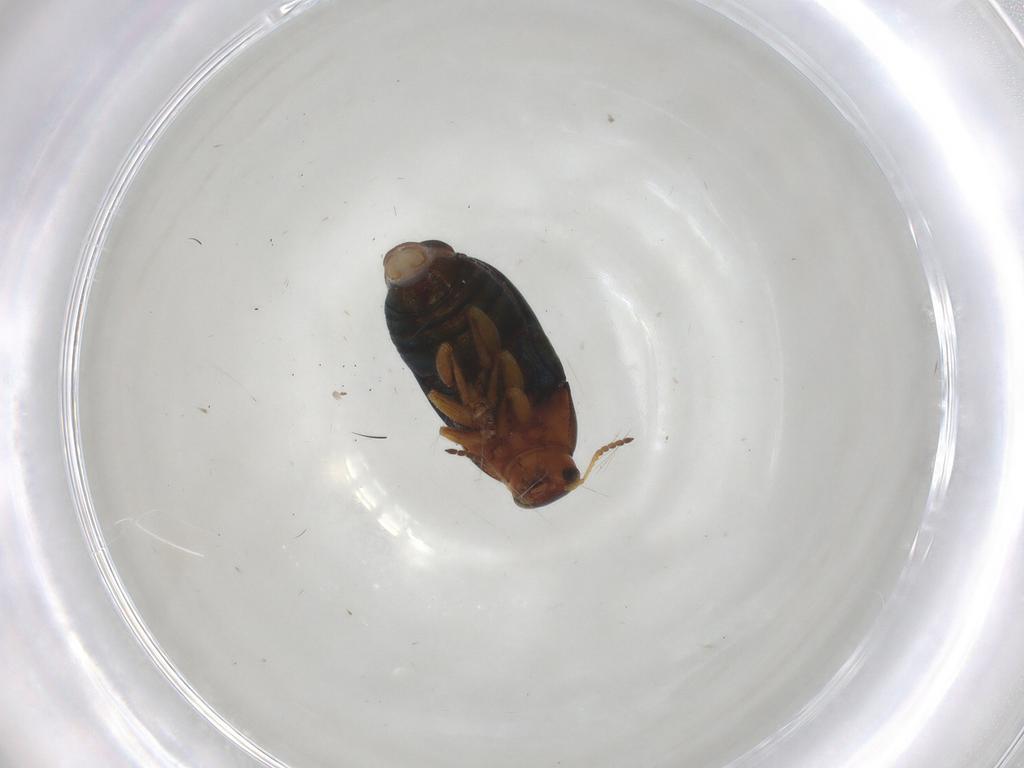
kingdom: Animalia
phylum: Arthropoda
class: Insecta
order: Coleoptera
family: Chrysomelidae
